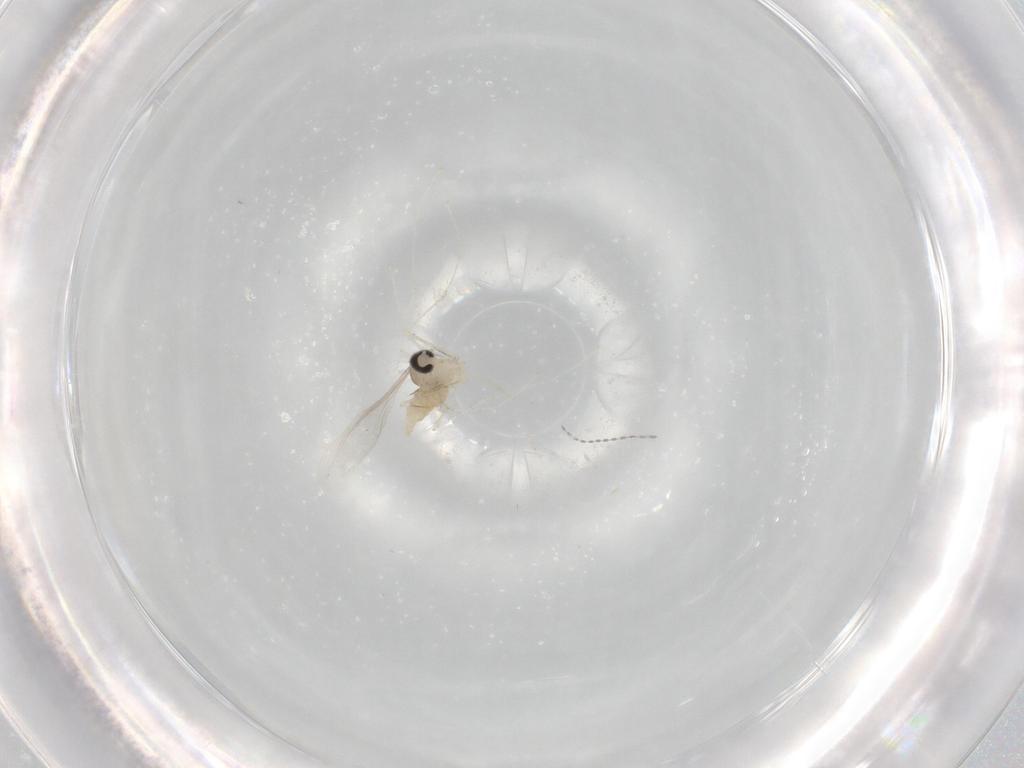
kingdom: Animalia
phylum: Arthropoda
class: Insecta
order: Diptera
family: Cecidomyiidae
